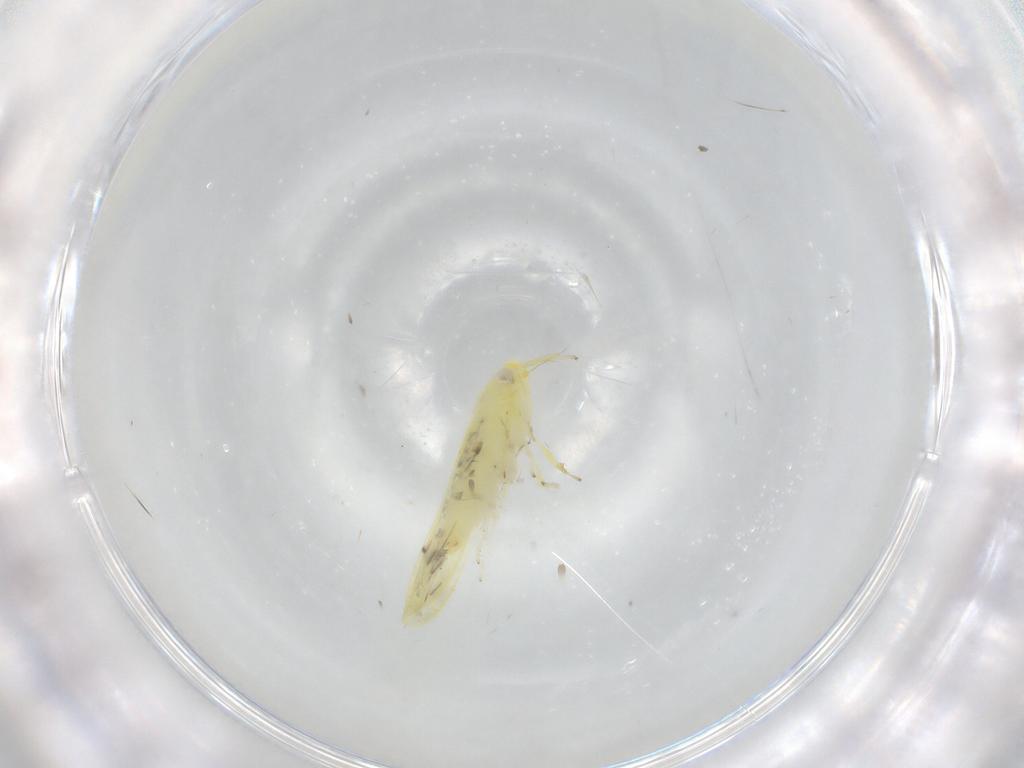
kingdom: Animalia
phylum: Arthropoda
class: Insecta
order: Hemiptera
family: Cicadellidae
